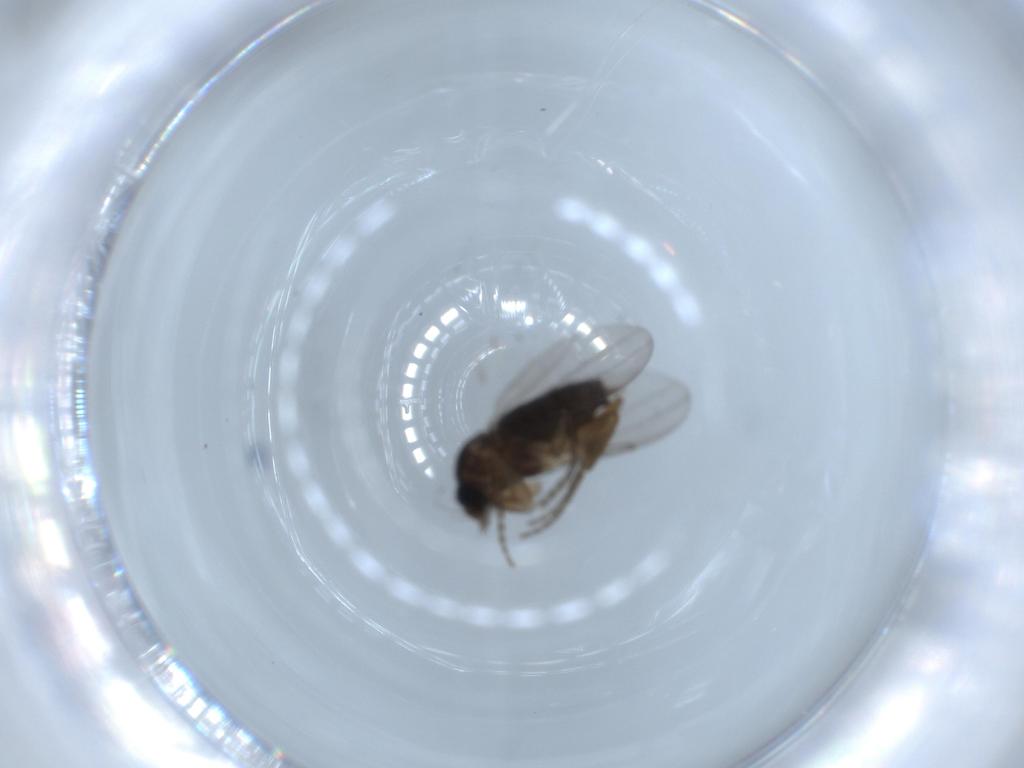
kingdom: Animalia
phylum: Arthropoda
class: Insecta
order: Diptera
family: Phoridae
